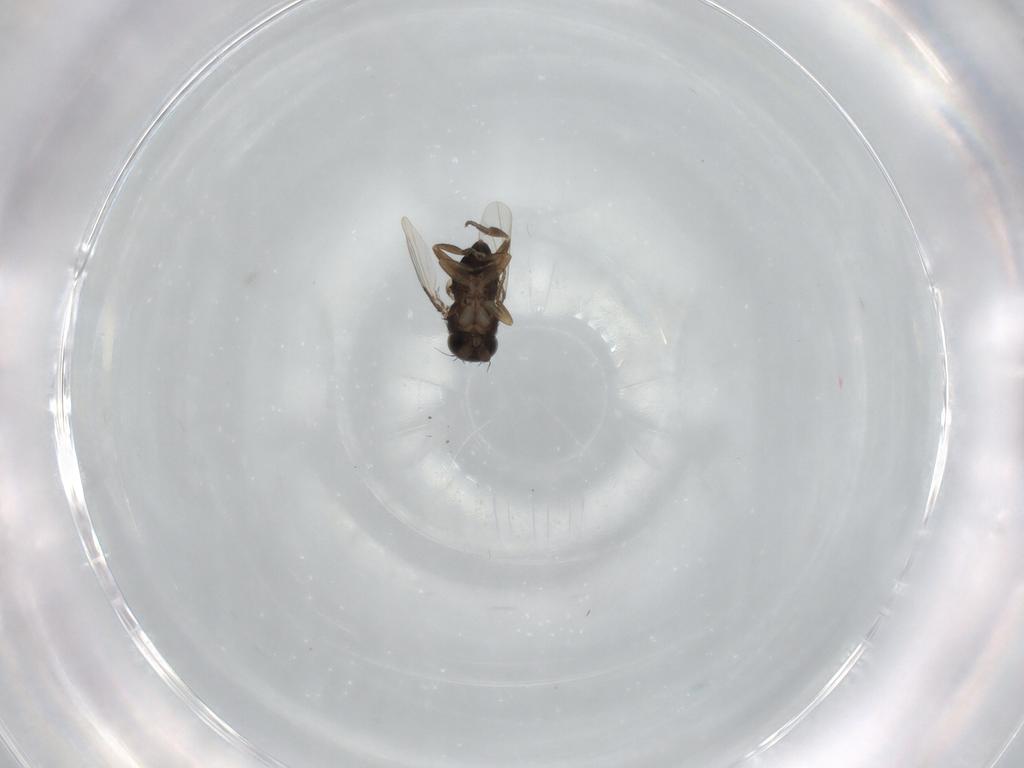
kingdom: Animalia
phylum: Arthropoda
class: Insecta
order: Diptera
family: Phoridae
